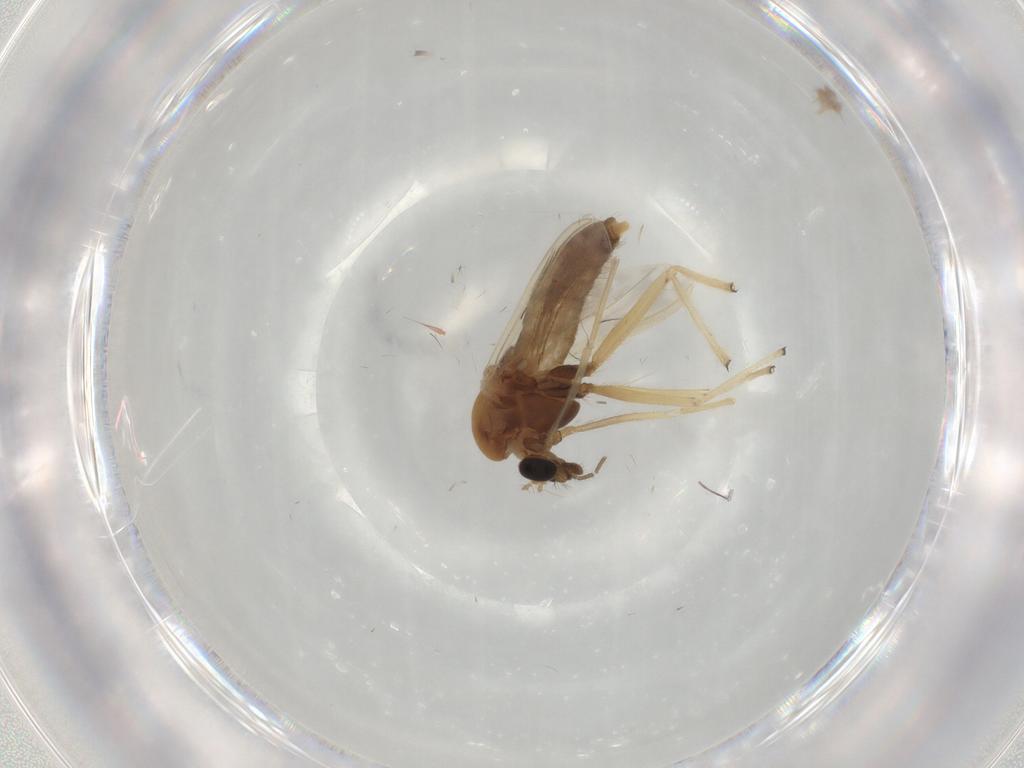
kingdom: Animalia
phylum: Arthropoda
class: Insecta
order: Diptera
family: Chironomidae
